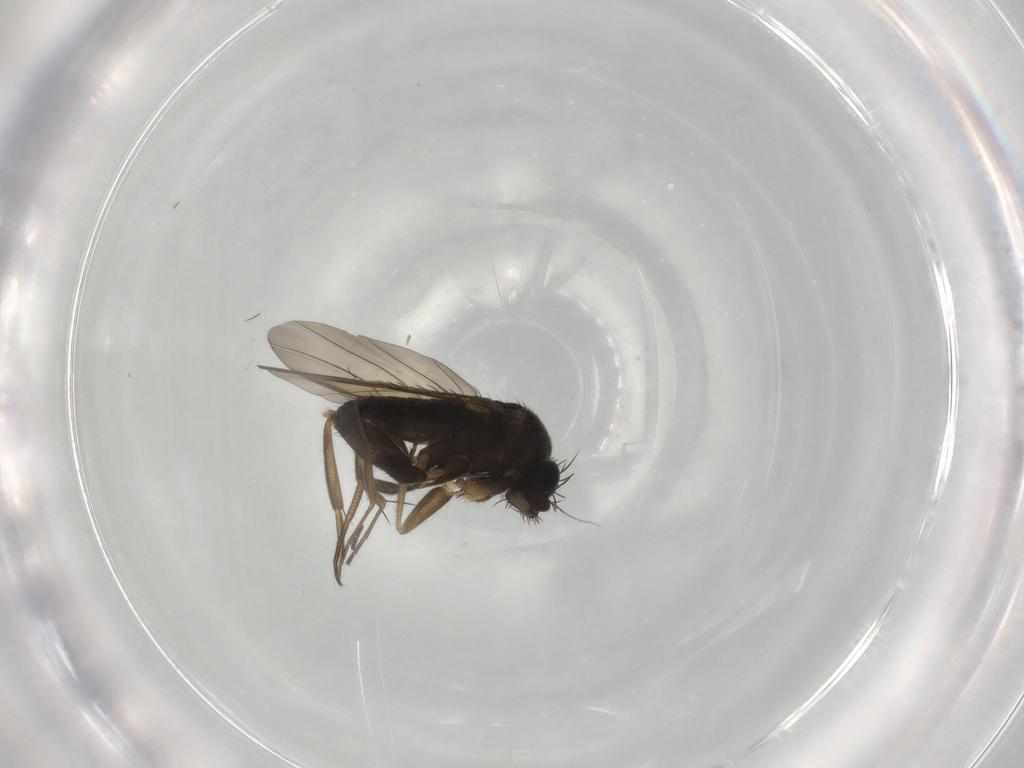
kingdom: Animalia
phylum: Arthropoda
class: Insecta
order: Diptera
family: Phoridae
